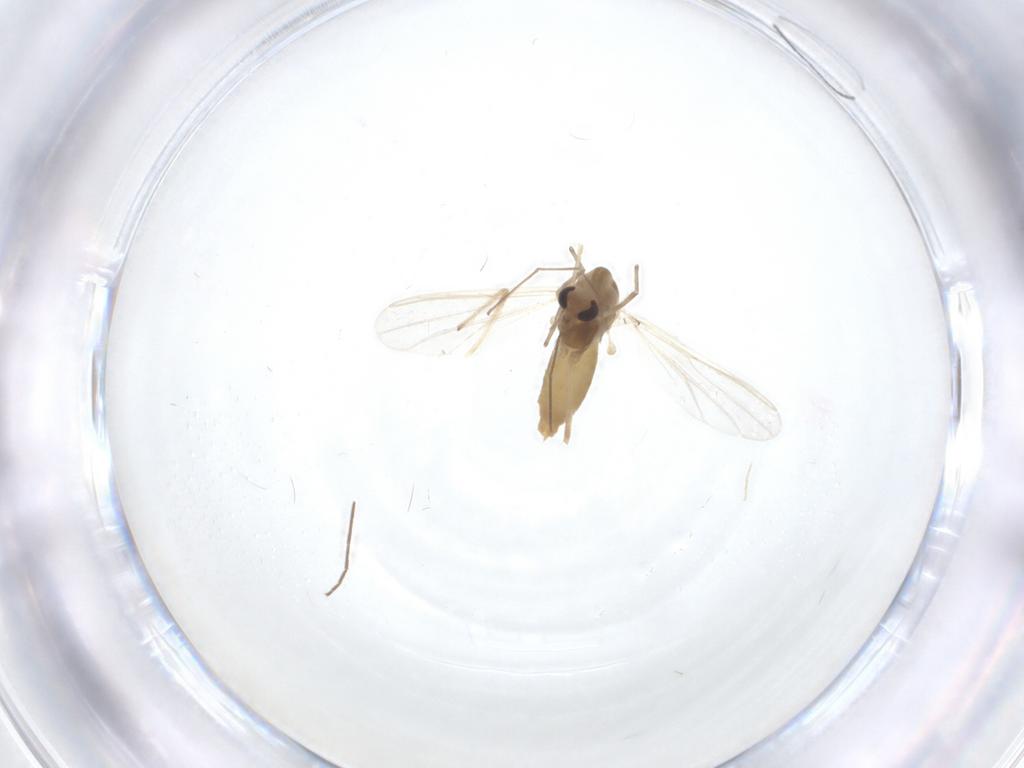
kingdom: Animalia
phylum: Arthropoda
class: Insecta
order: Diptera
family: Sciaridae
